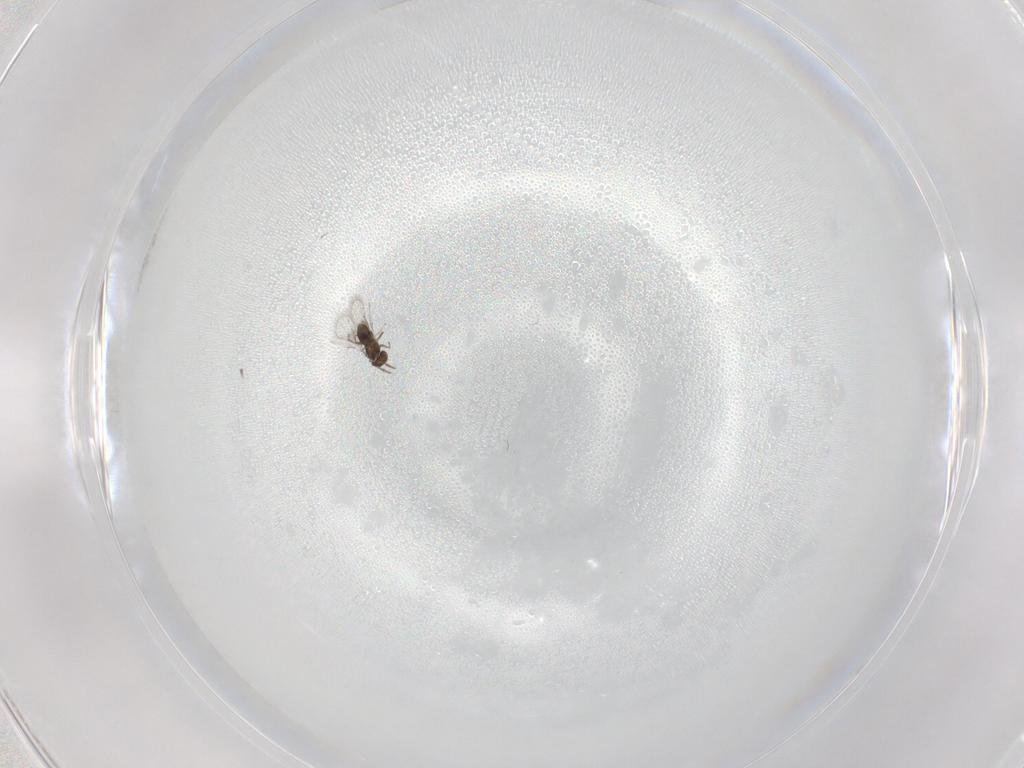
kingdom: Animalia
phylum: Arthropoda
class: Insecta
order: Hymenoptera
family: Trichogrammatidae
